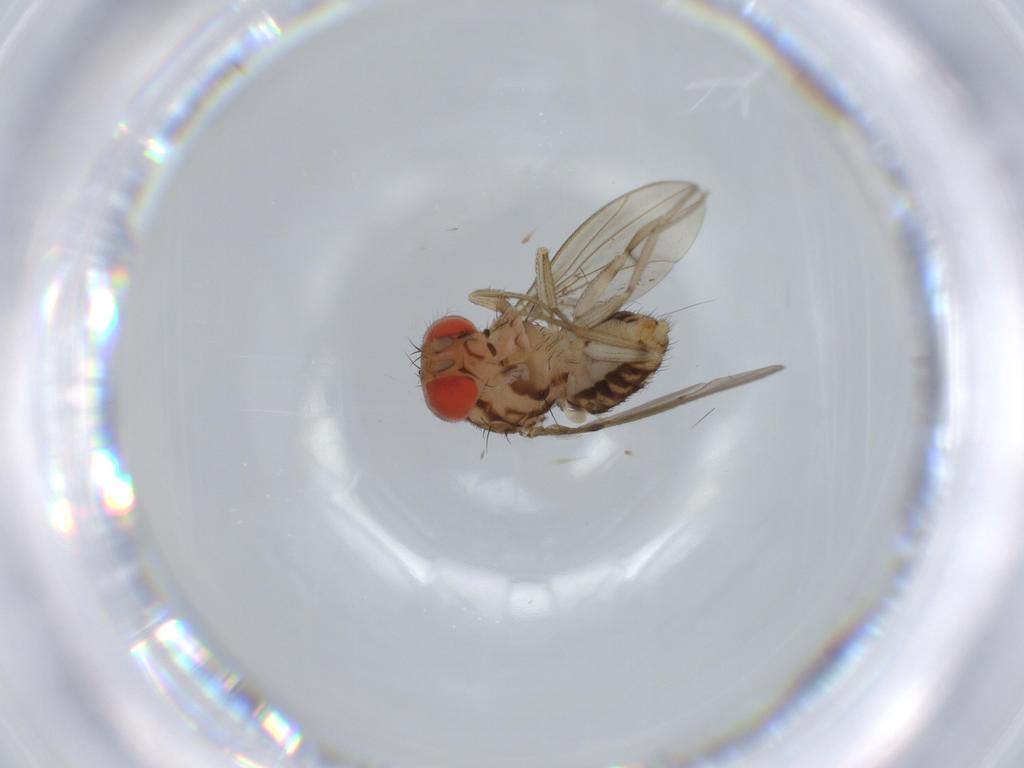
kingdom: Animalia
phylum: Arthropoda
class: Insecta
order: Diptera
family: Drosophilidae
